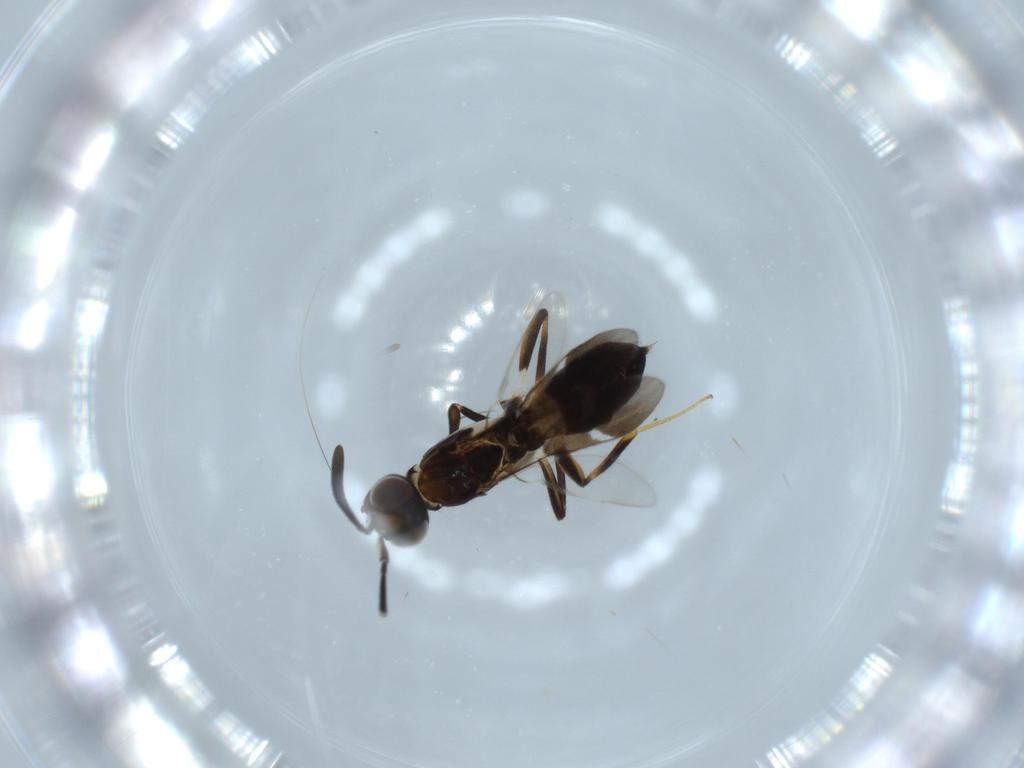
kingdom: Animalia
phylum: Arthropoda
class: Insecta
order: Hymenoptera
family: Eupelmidae
